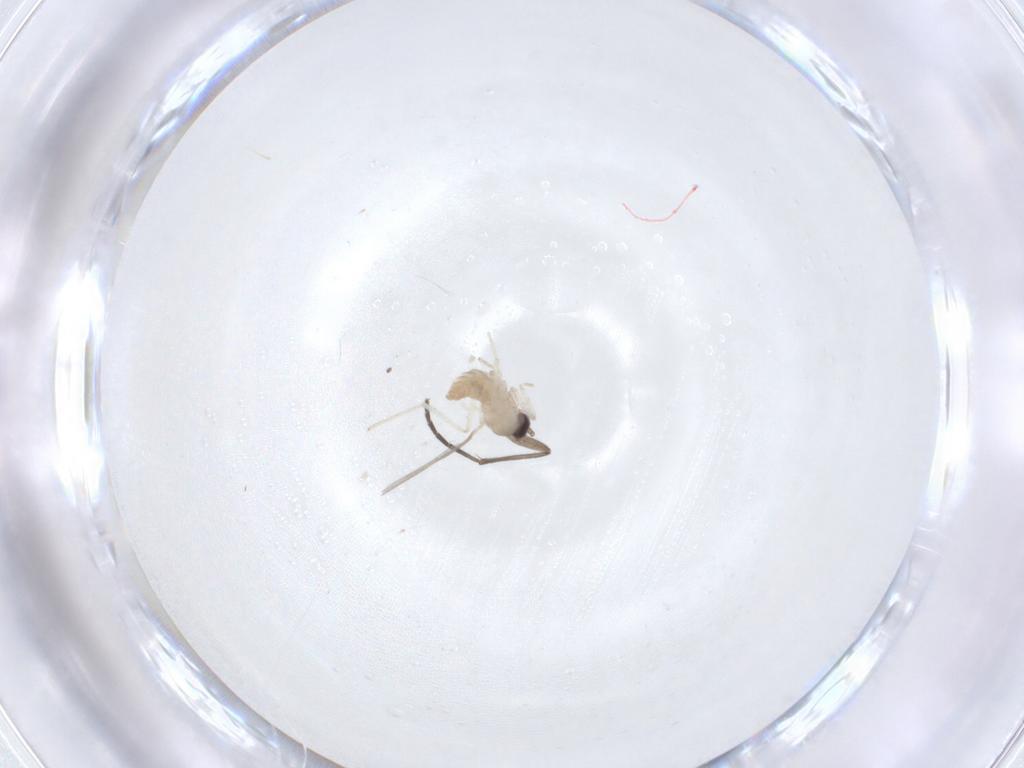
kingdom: Animalia
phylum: Arthropoda
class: Insecta
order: Diptera
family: Cecidomyiidae
